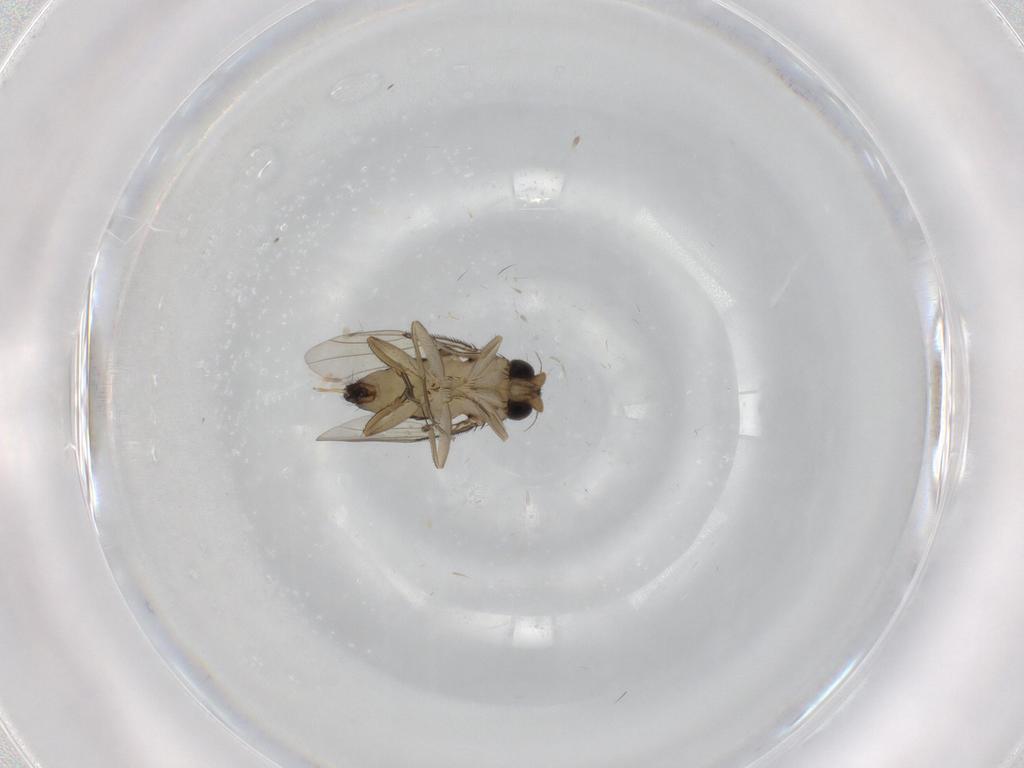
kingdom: Animalia
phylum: Arthropoda
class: Insecta
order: Diptera
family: Phoridae
